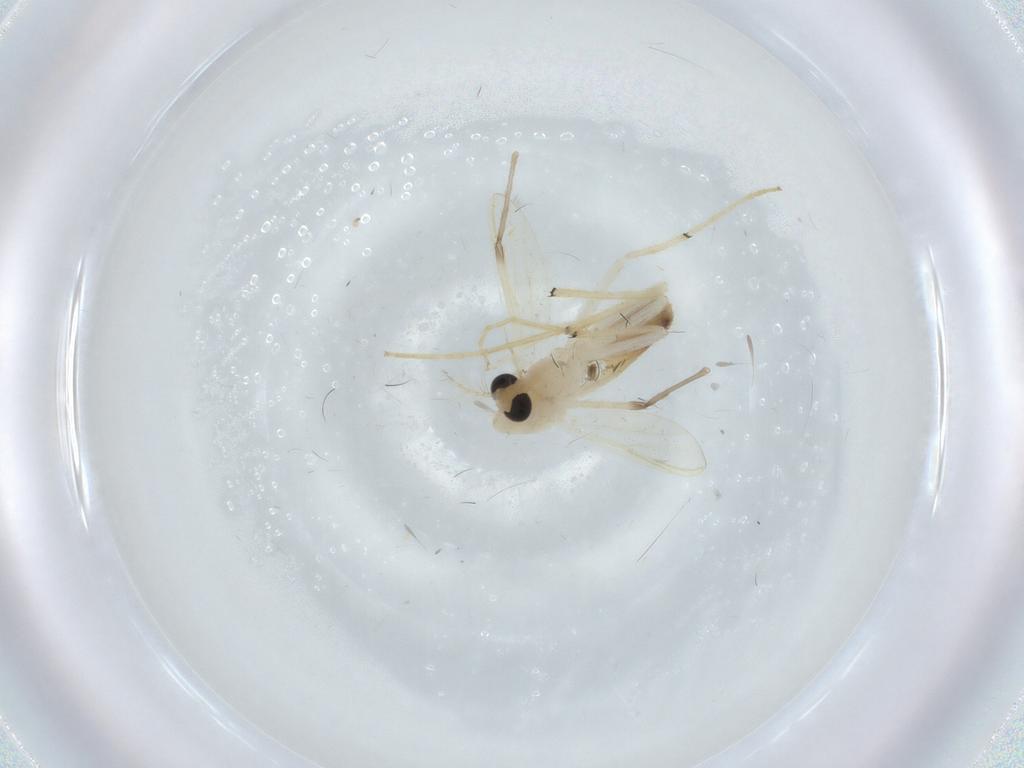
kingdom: Animalia
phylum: Arthropoda
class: Insecta
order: Diptera
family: Chironomidae
